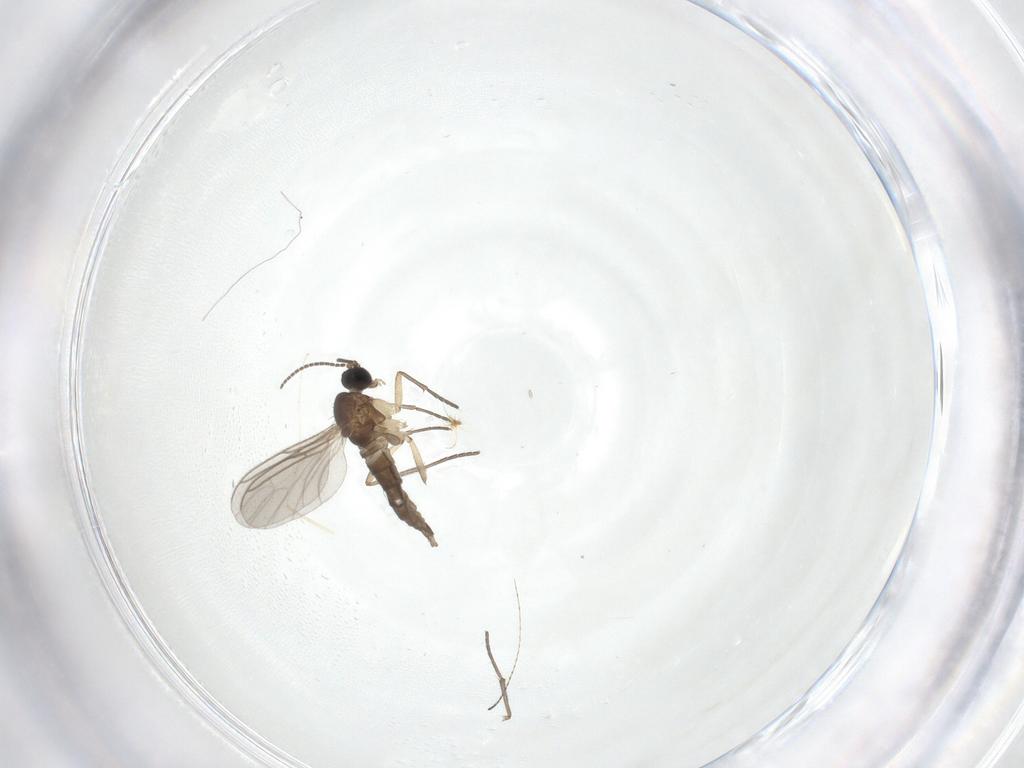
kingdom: Animalia
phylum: Arthropoda
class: Insecta
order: Diptera
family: Sciaridae
